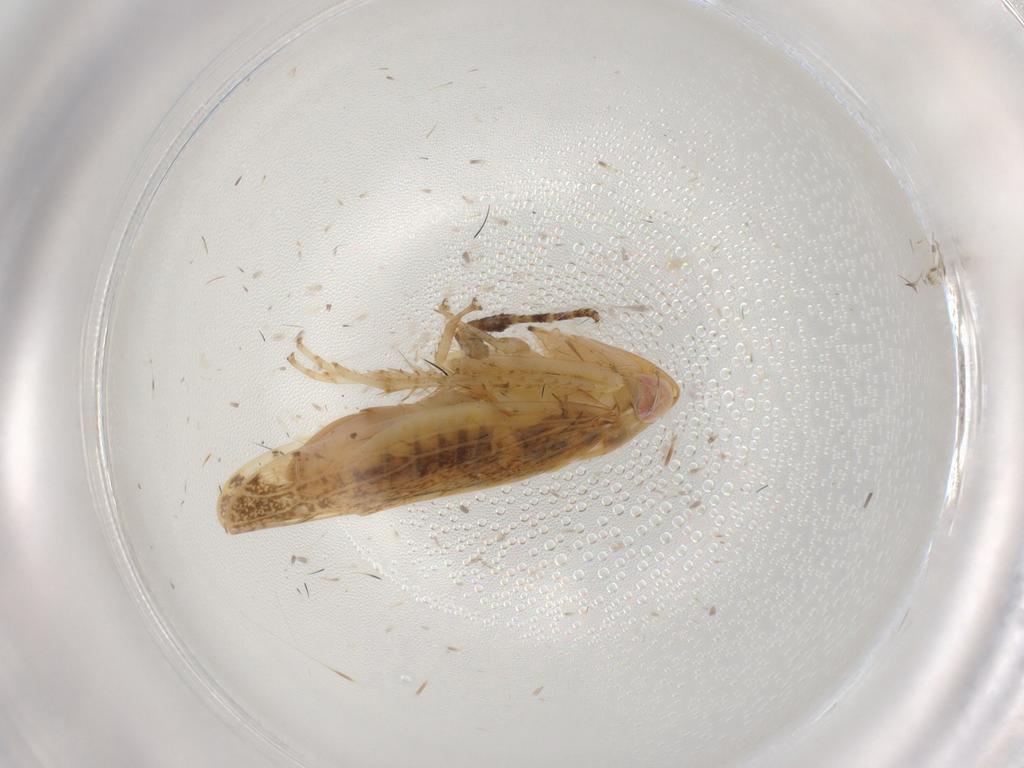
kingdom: Animalia
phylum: Arthropoda
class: Insecta
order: Hemiptera
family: Cicadellidae
